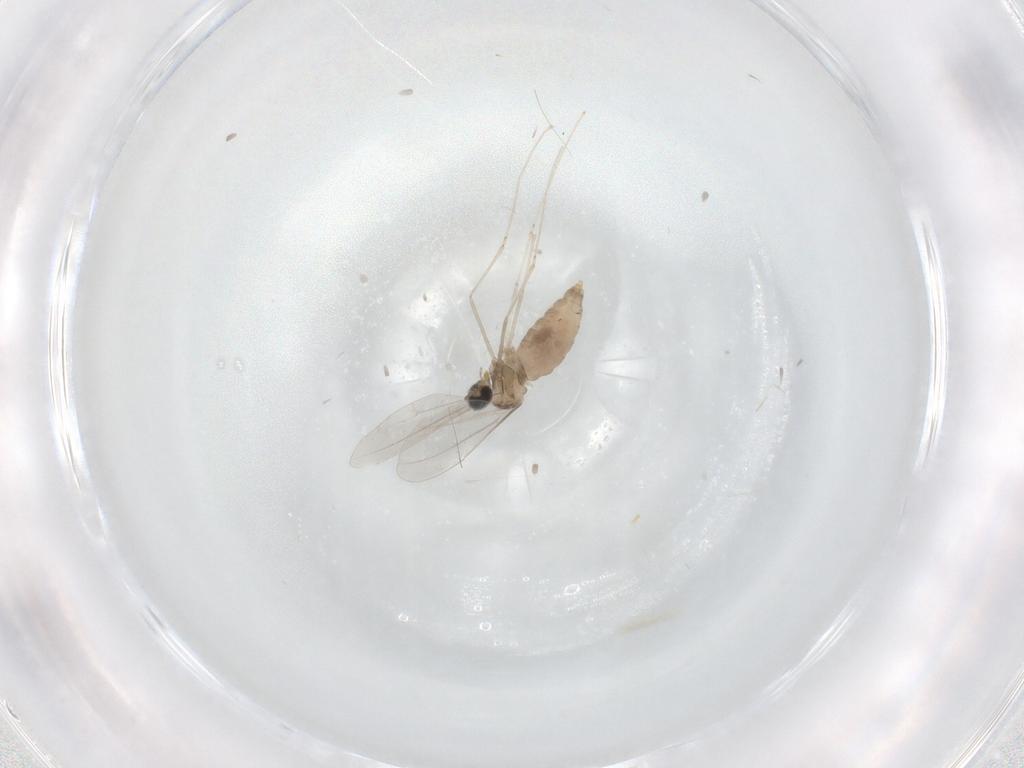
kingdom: Animalia
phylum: Arthropoda
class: Insecta
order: Diptera
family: Cecidomyiidae
